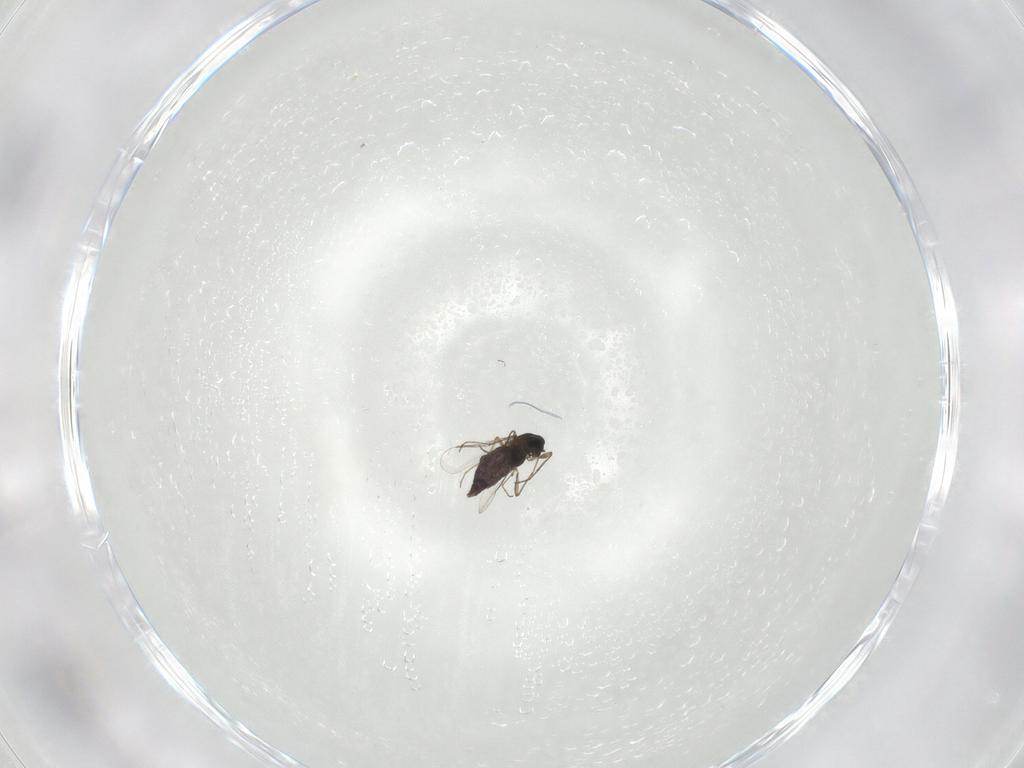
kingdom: Animalia
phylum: Arthropoda
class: Insecta
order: Diptera
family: Chironomidae
